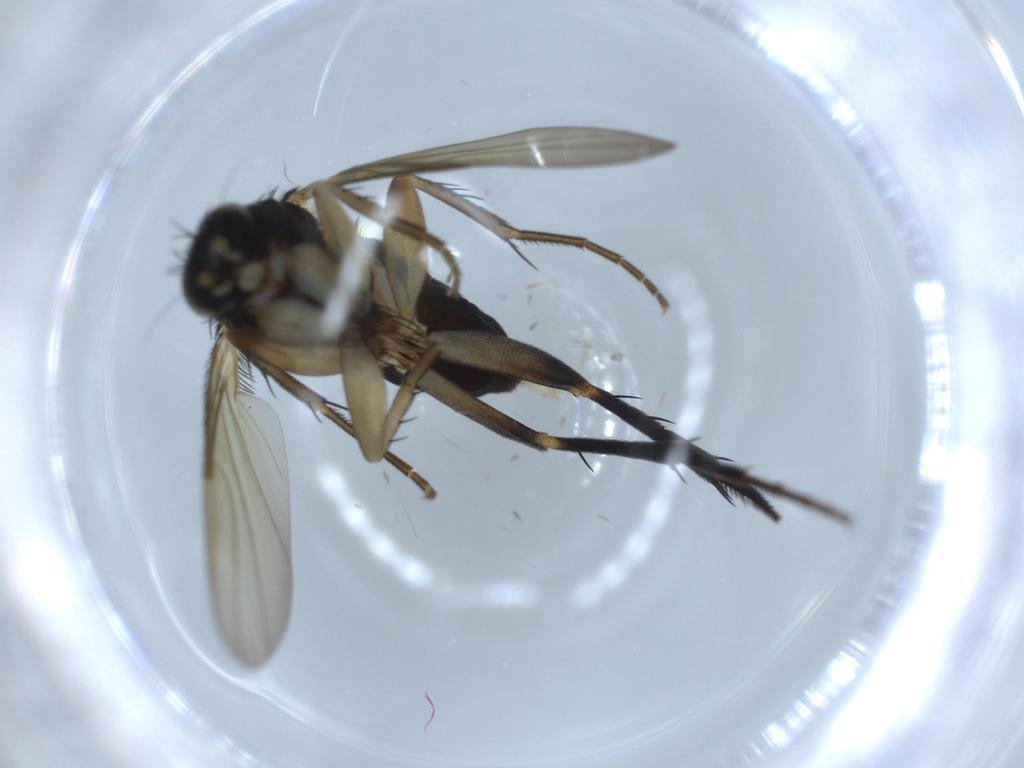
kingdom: Animalia
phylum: Arthropoda
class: Insecta
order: Diptera
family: Phoridae
